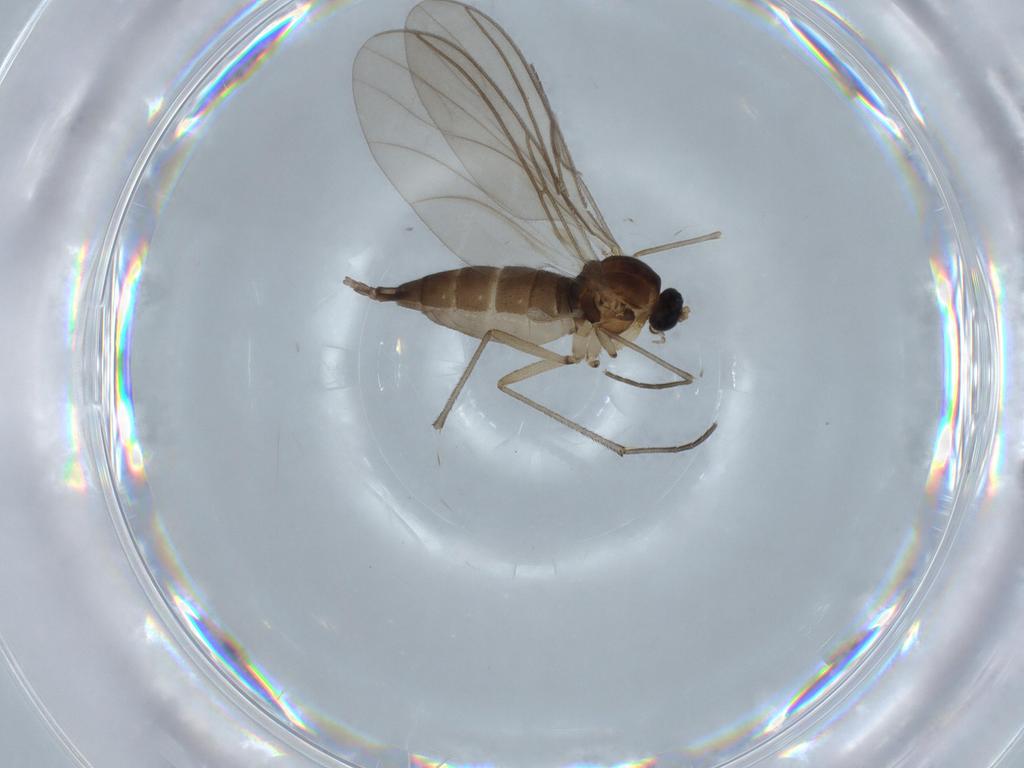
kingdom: Animalia
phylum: Arthropoda
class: Insecta
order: Diptera
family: Sciaridae
